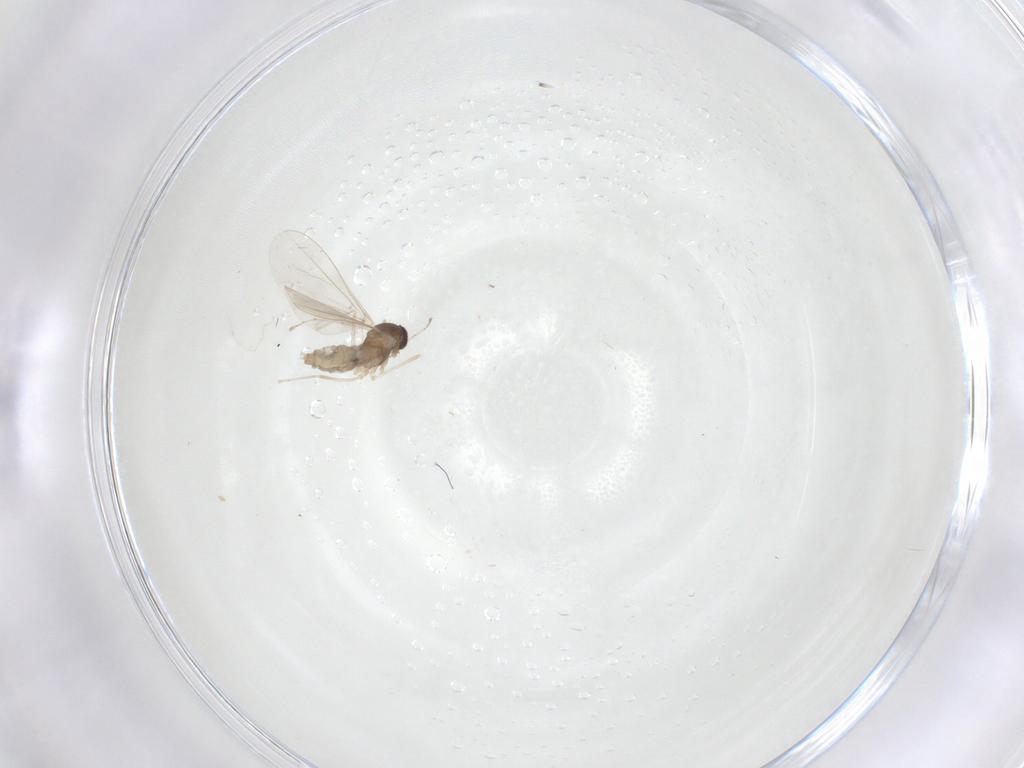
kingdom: Animalia
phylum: Arthropoda
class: Insecta
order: Diptera
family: Cecidomyiidae
